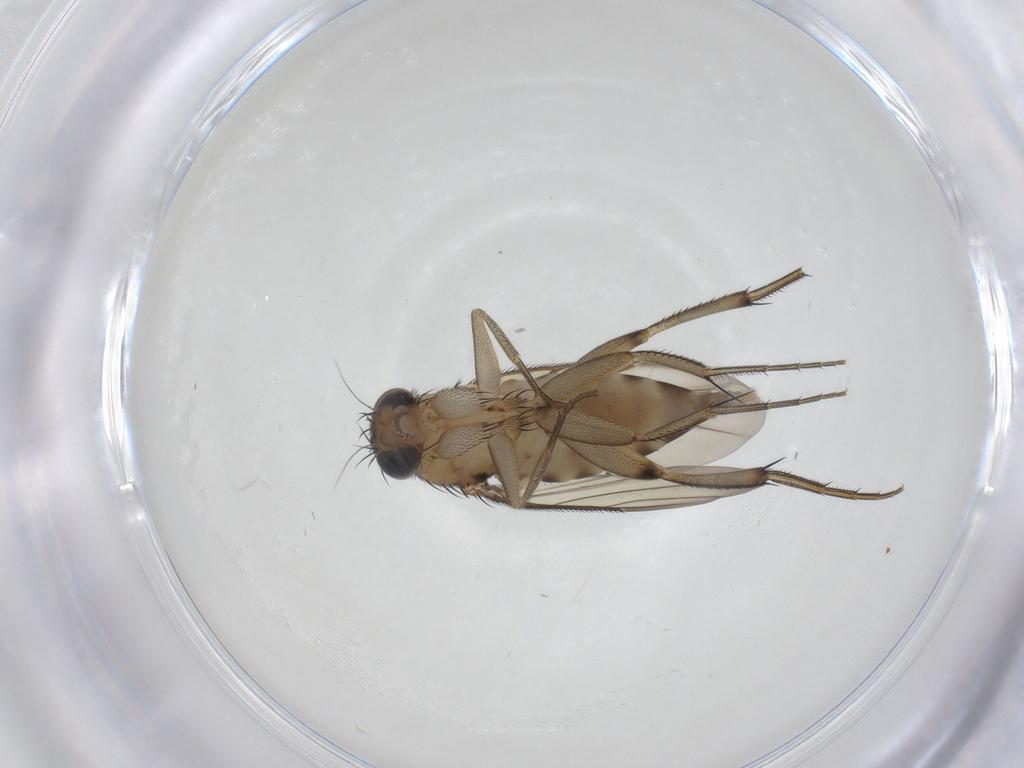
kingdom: Animalia
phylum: Arthropoda
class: Insecta
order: Diptera
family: Phoridae
